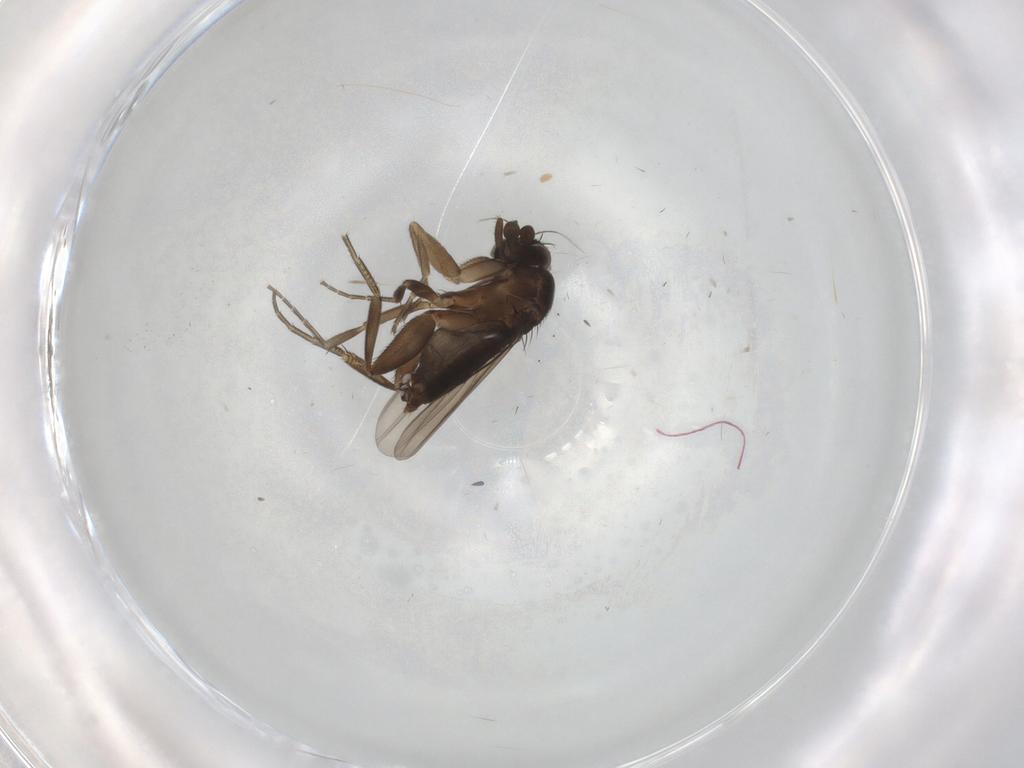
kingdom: Animalia
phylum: Arthropoda
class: Insecta
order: Diptera
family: Phoridae
